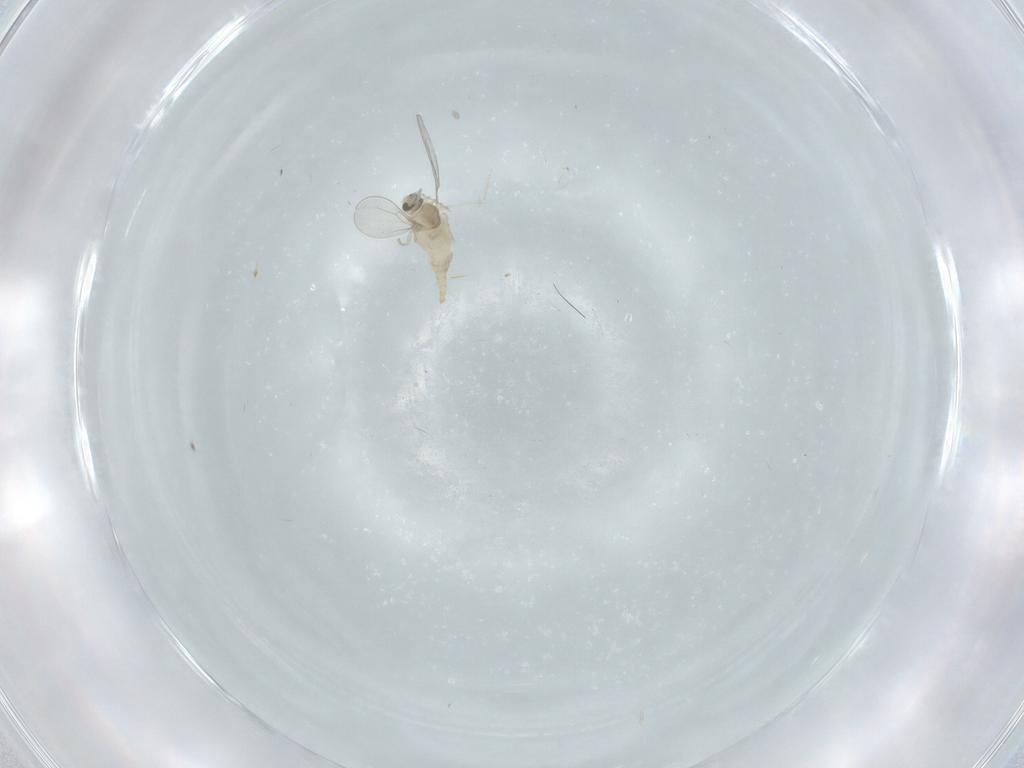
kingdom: Animalia
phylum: Arthropoda
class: Insecta
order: Diptera
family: Cecidomyiidae
